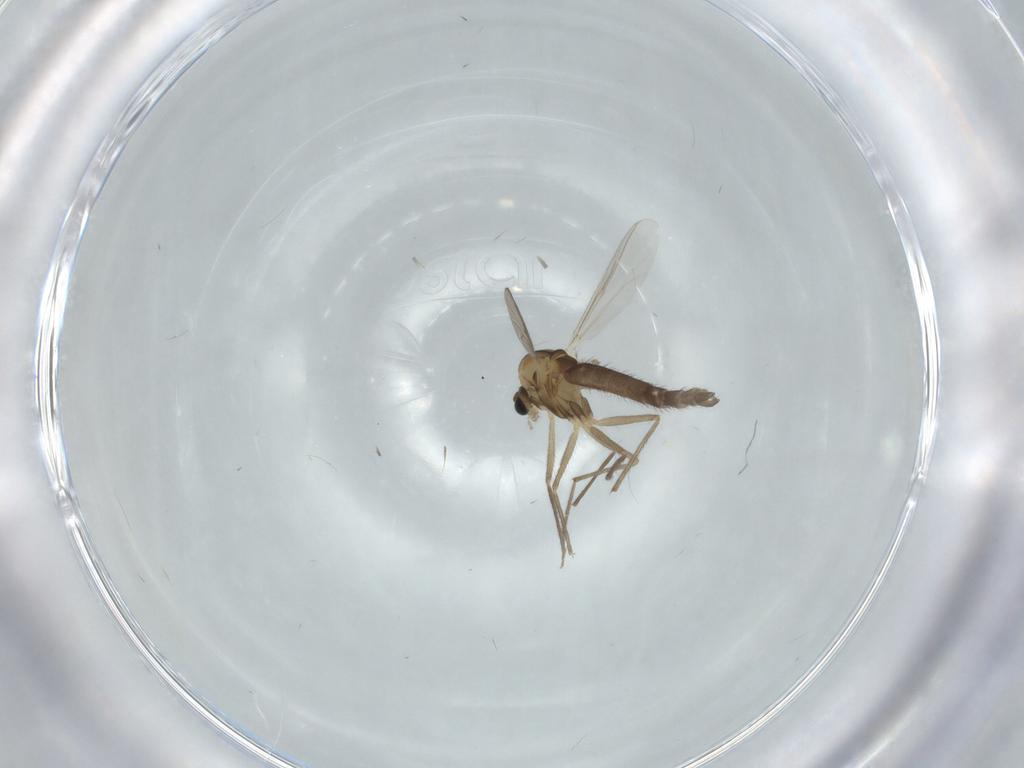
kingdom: Animalia
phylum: Arthropoda
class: Insecta
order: Diptera
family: Chironomidae
